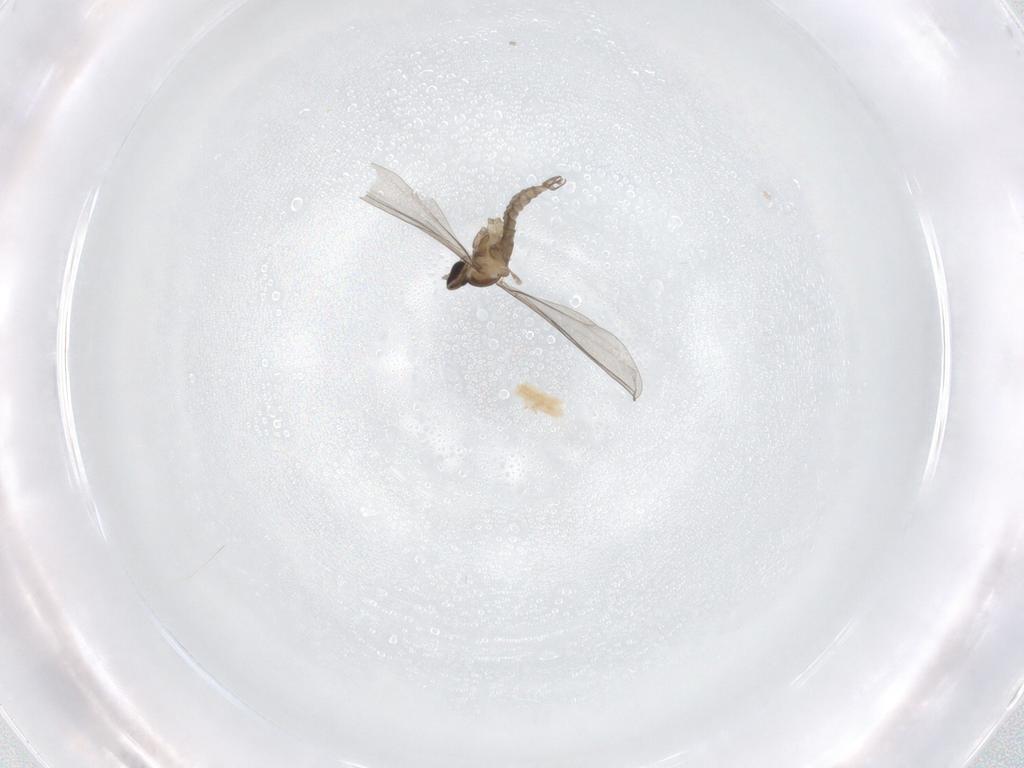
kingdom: Animalia
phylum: Arthropoda
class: Insecta
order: Diptera
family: Cecidomyiidae
